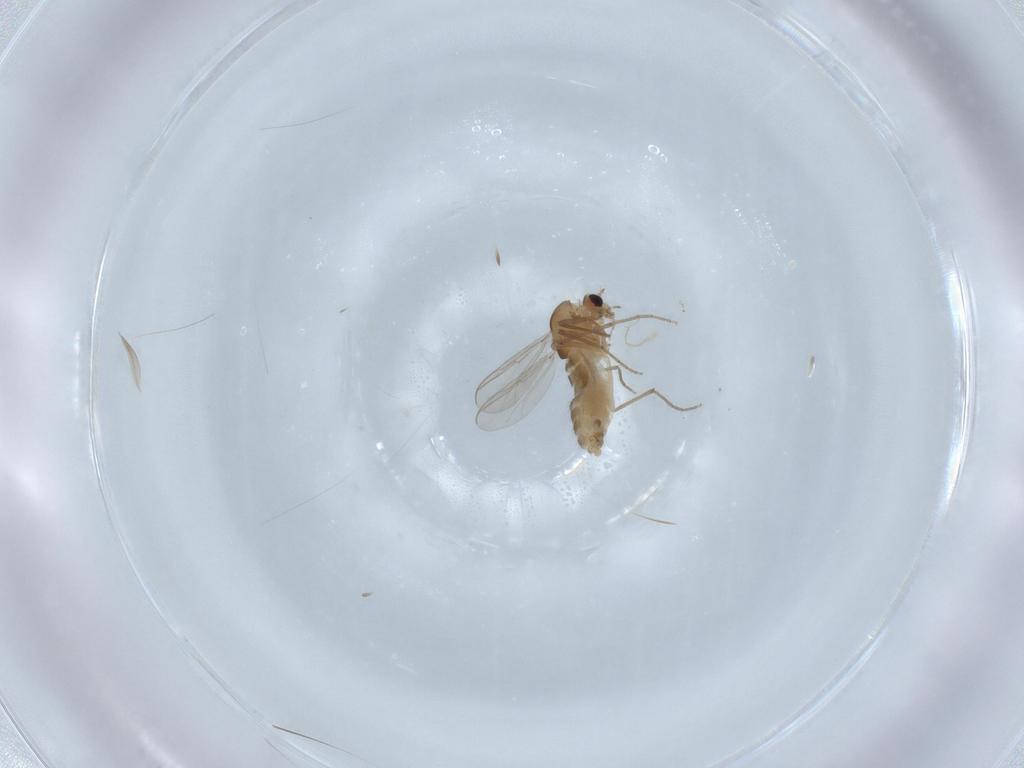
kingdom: Animalia
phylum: Arthropoda
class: Insecta
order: Diptera
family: Chironomidae
